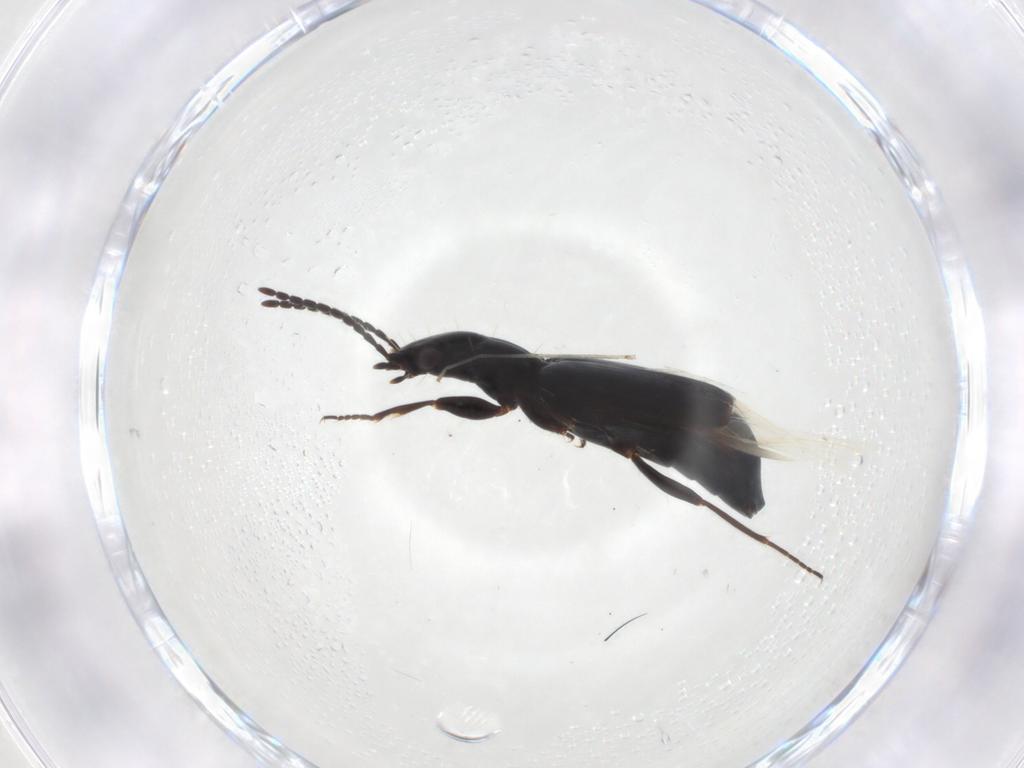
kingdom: Animalia
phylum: Arthropoda
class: Insecta
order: Coleoptera
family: Carabidae
